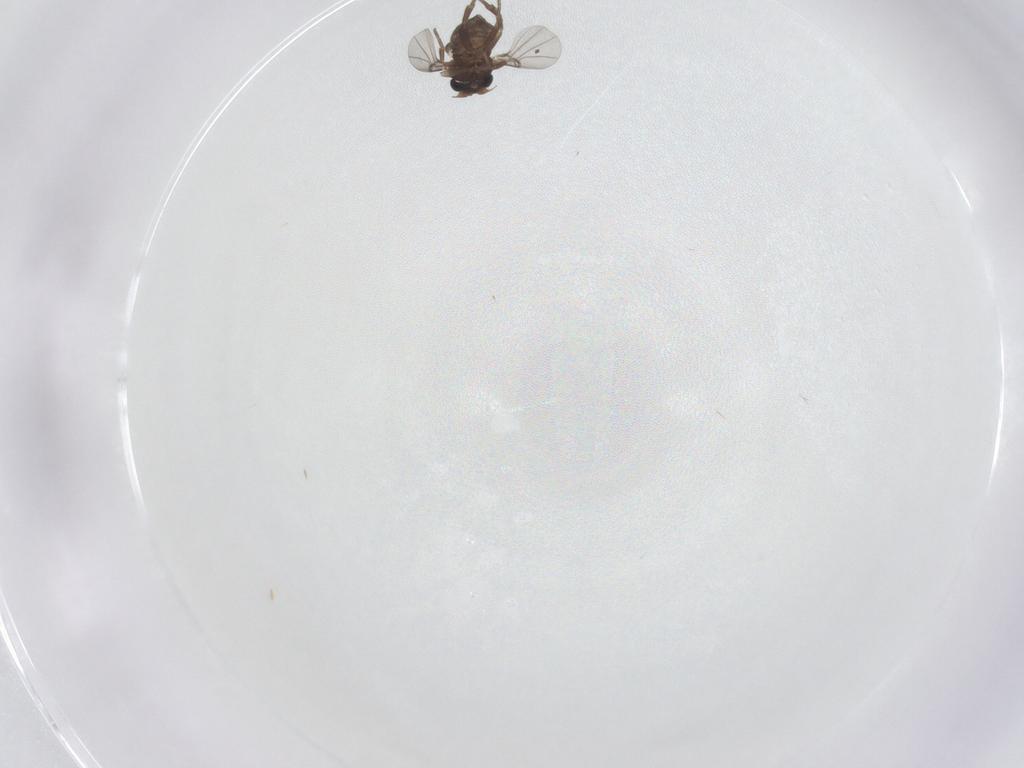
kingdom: Animalia
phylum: Arthropoda
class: Insecta
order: Diptera
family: Phoridae
